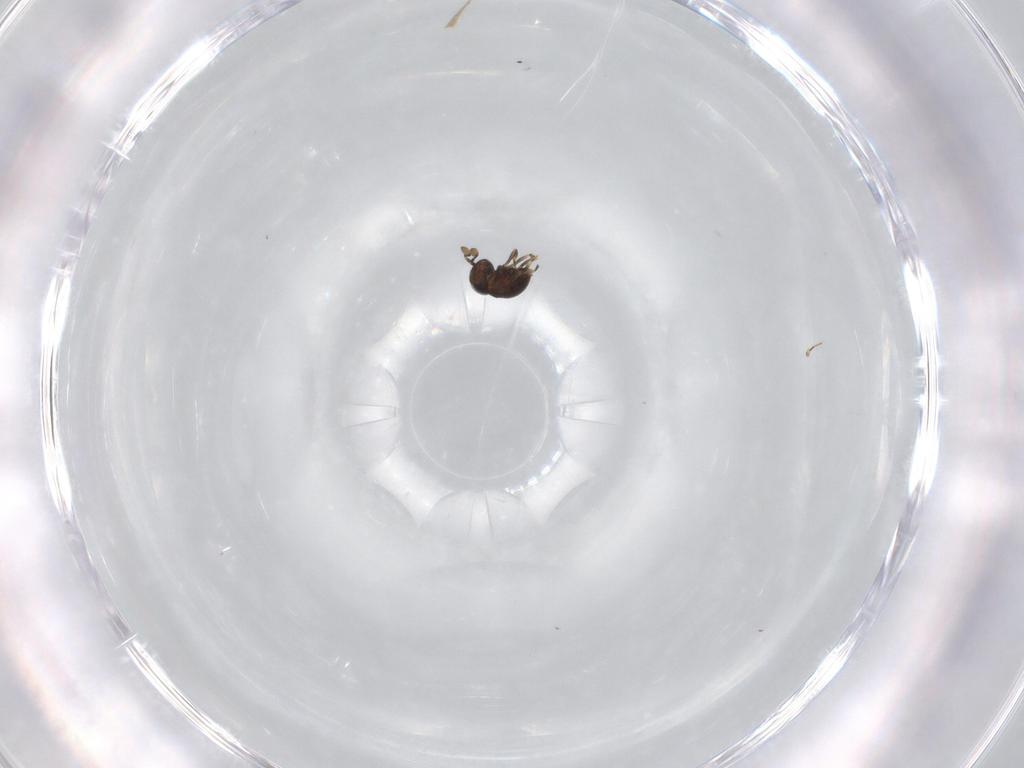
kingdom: Animalia
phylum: Arthropoda
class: Insecta
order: Hymenoptera
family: Scelionidae
